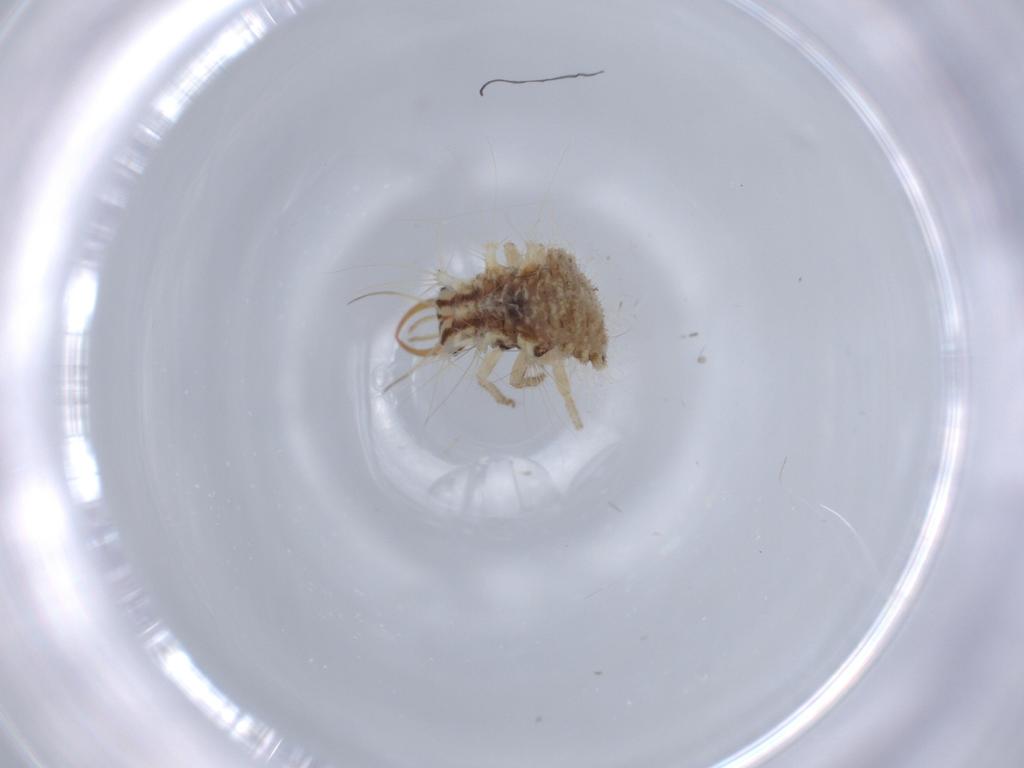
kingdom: Animalia
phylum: Arthropoda
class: Insecta
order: Neuroptera
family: Chrysopidae
